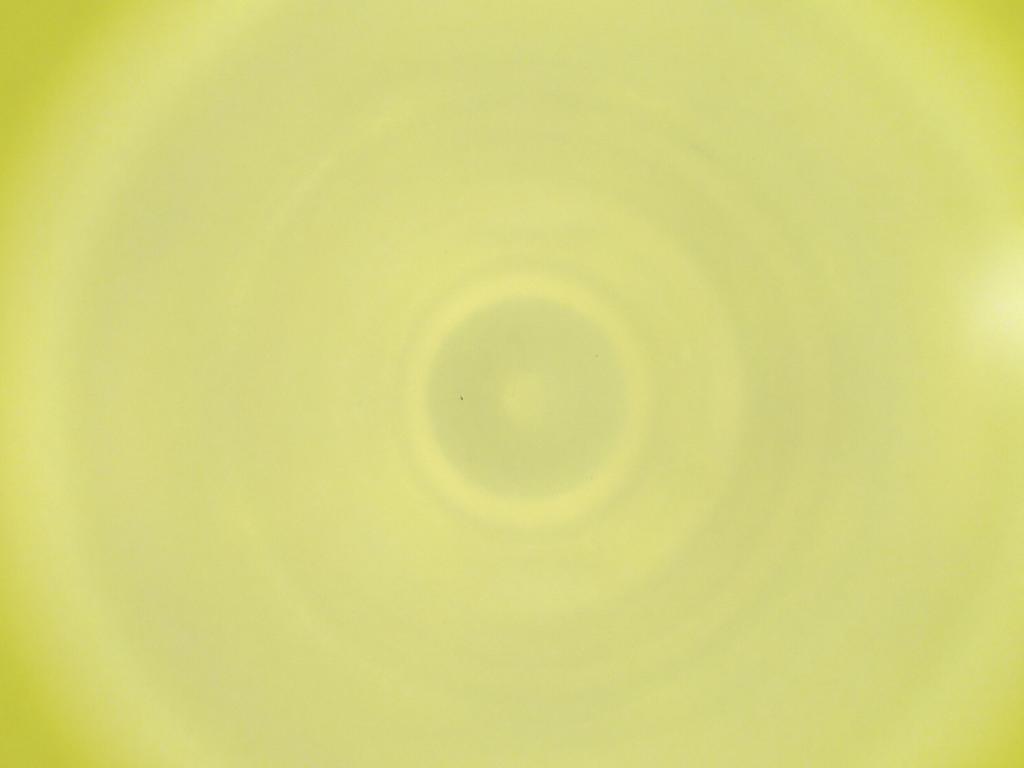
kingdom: Animalia
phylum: Arthropoda
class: Insecta
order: Diptera
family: Cecidomyiidae
